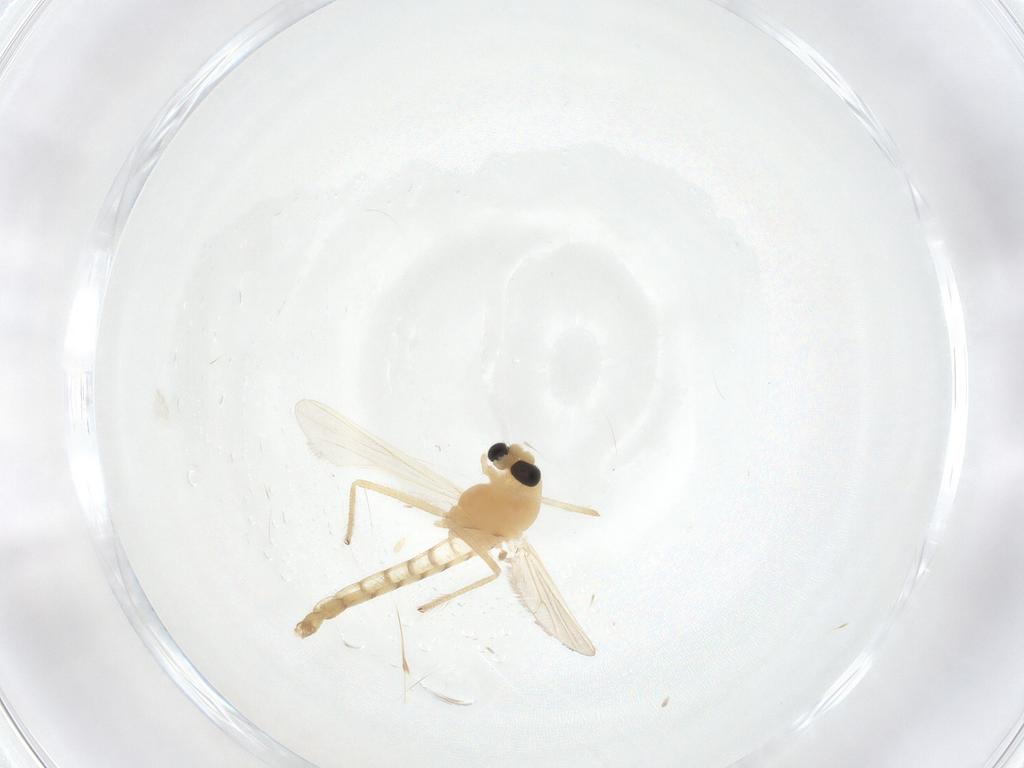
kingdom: Animalia
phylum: Arthropoda
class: Insecta
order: Diptera
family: Chironomidae
